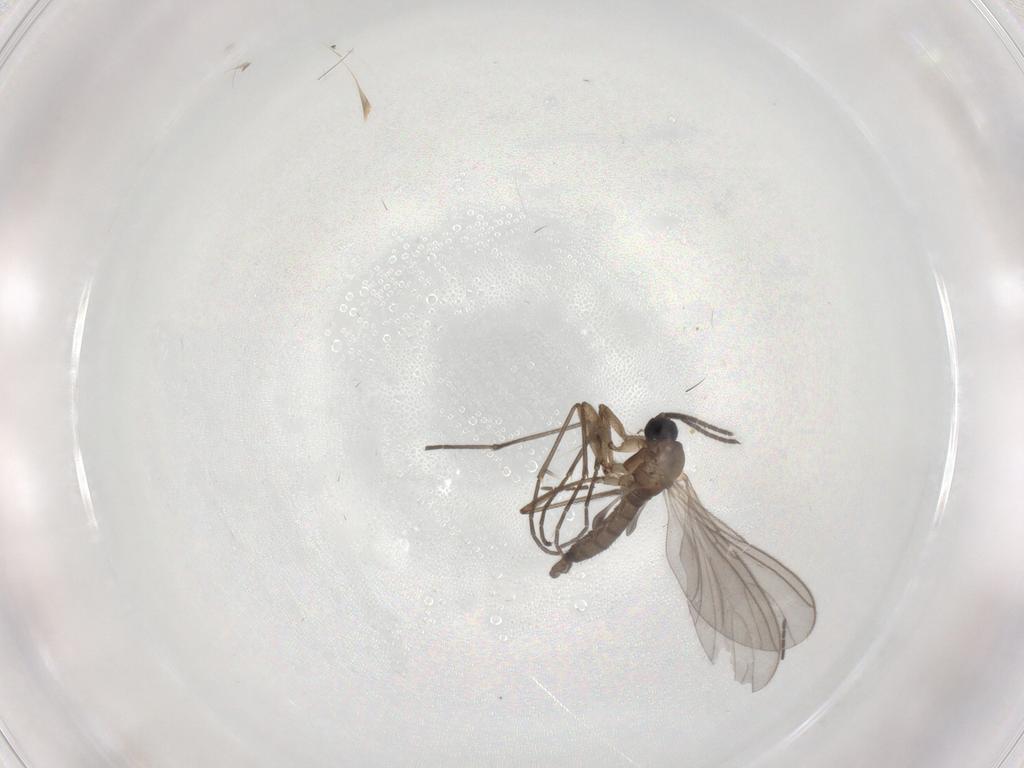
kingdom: Animalia
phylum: Arthropoda
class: Insecta
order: Diptera
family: Sciaridae
